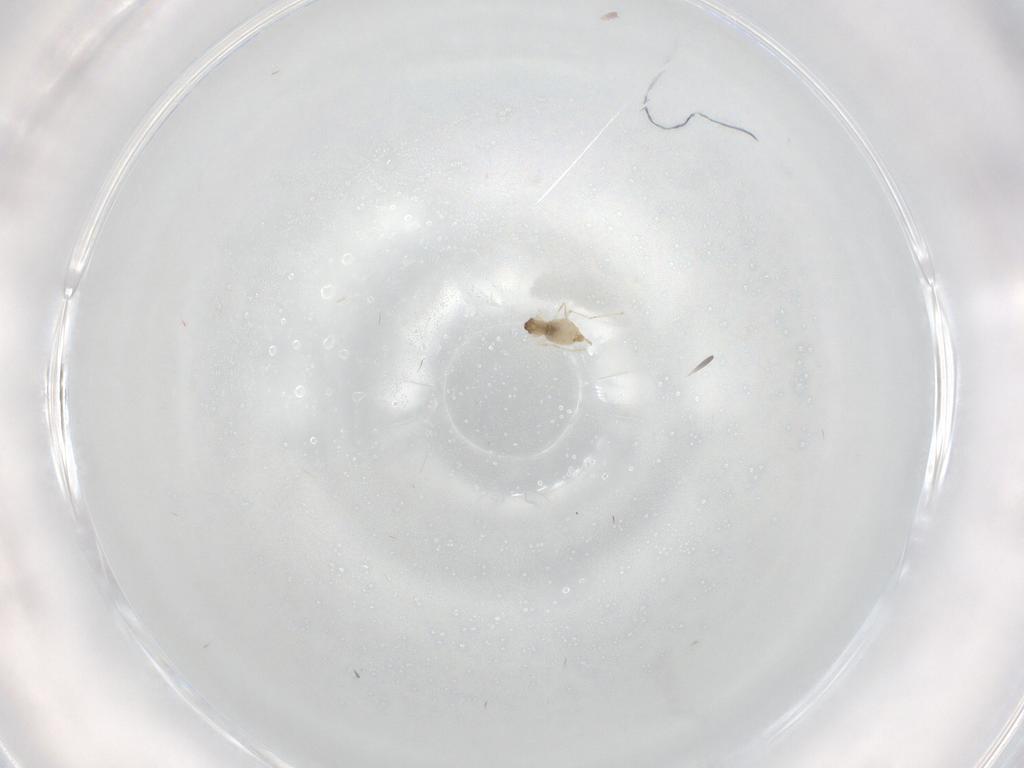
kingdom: Animalia
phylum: Arthropoda
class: Insecta
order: Diptera
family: Cecidomyiidae
